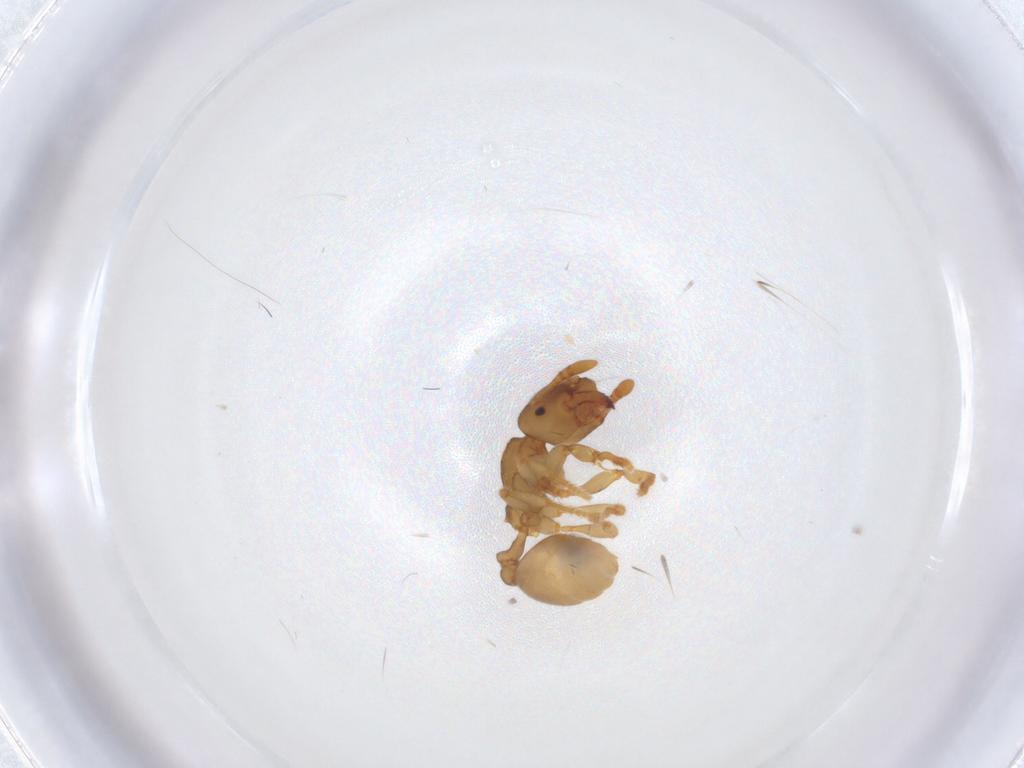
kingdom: Animalia
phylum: Arthropoda
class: Insecta
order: Hymenoptera
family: Formicidae
